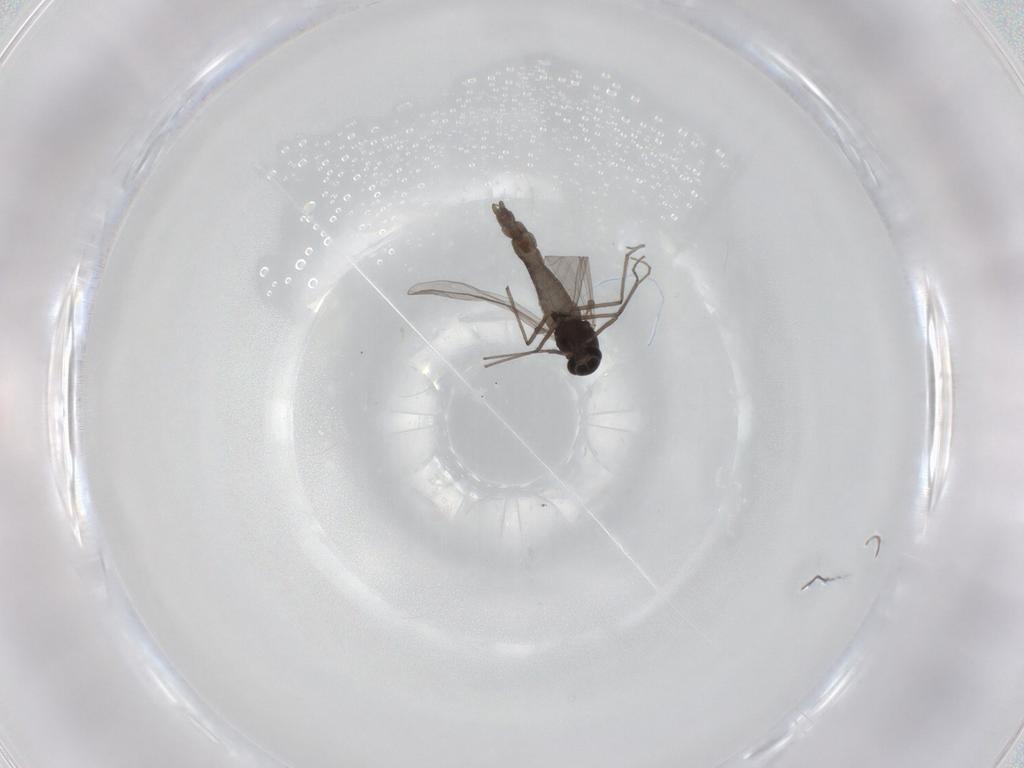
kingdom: Animalia
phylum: Arthropoda
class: Insecta
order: Diptera
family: Chironomidae
